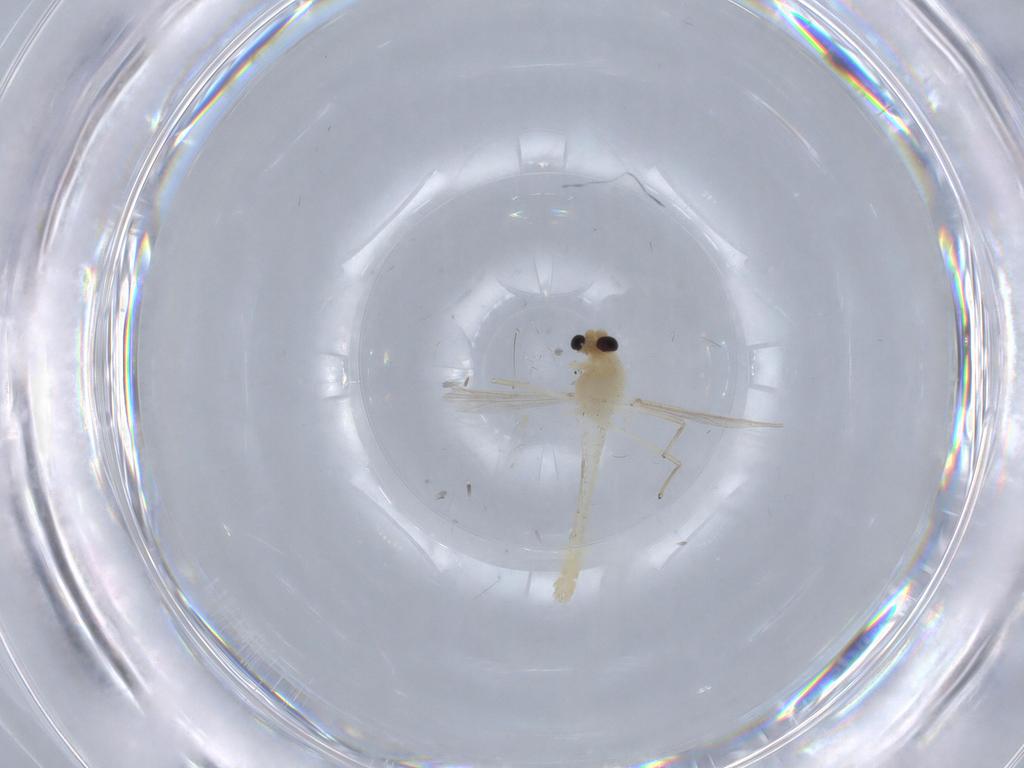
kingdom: Animalia
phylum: Arthropoda
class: Insecta
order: Diptera
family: Chironomidae
